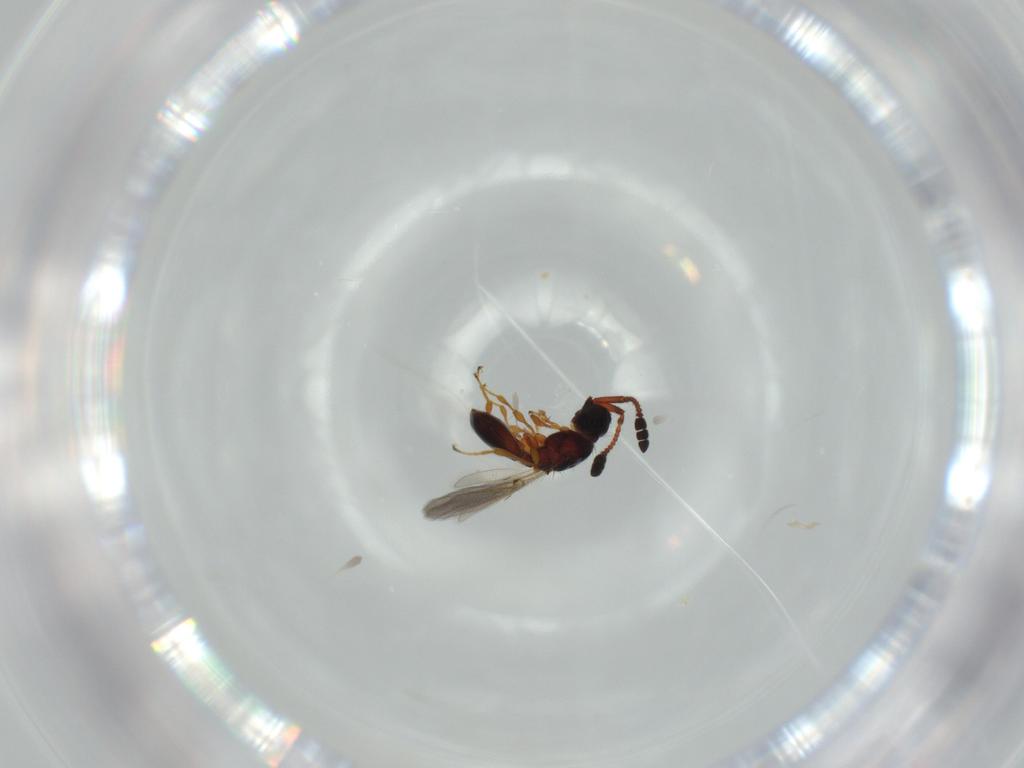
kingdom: Animalia
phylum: Arthropoda
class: Insecta
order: Hymenoptera
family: Diapriidae
